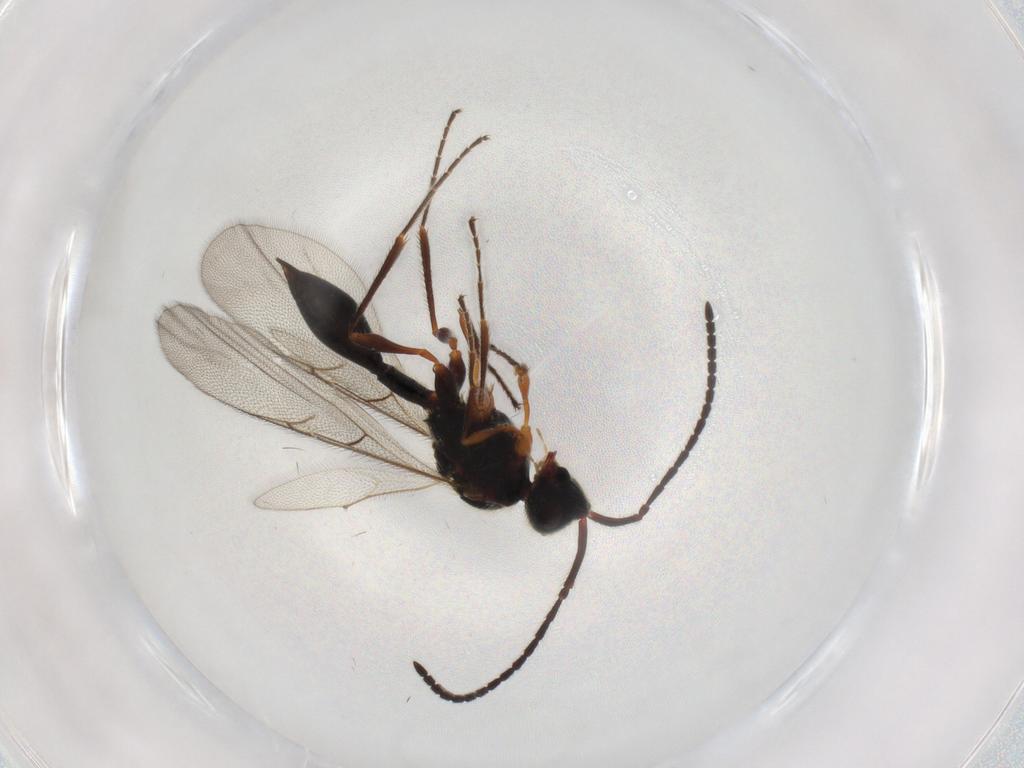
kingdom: Animalia
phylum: Arthropoda
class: Insecta
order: Hymenoptera
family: Diapriidae
